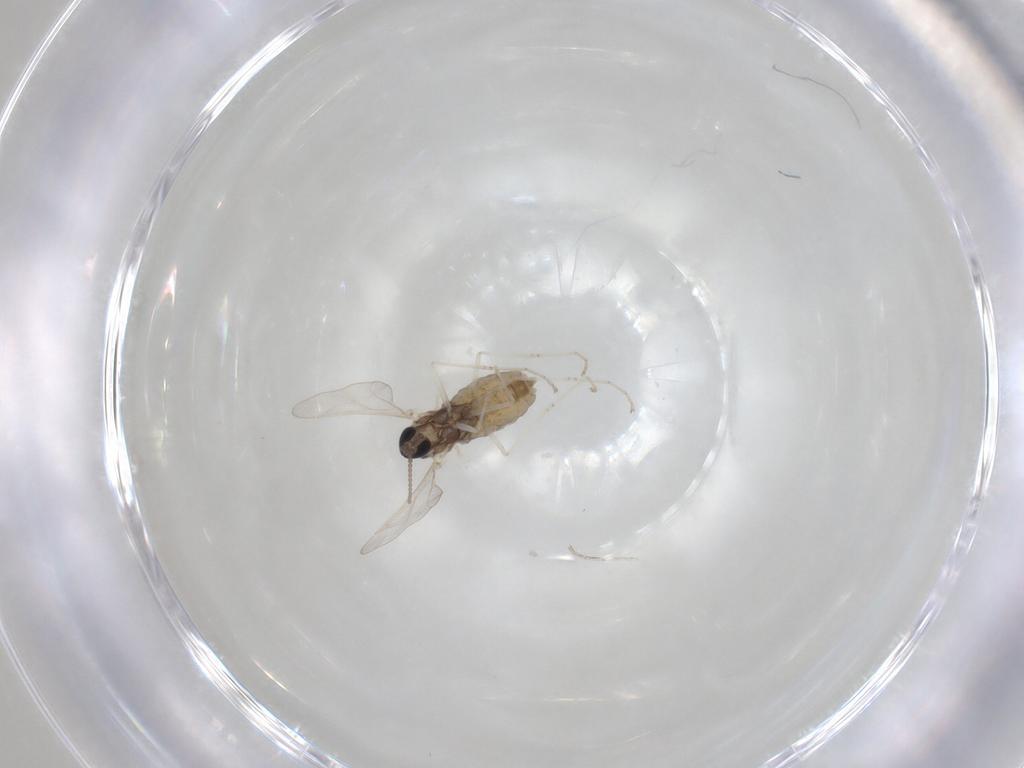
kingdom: Animalia
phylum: Arthropoda
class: Insecta
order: Diptera
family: Cecidomyiidae
